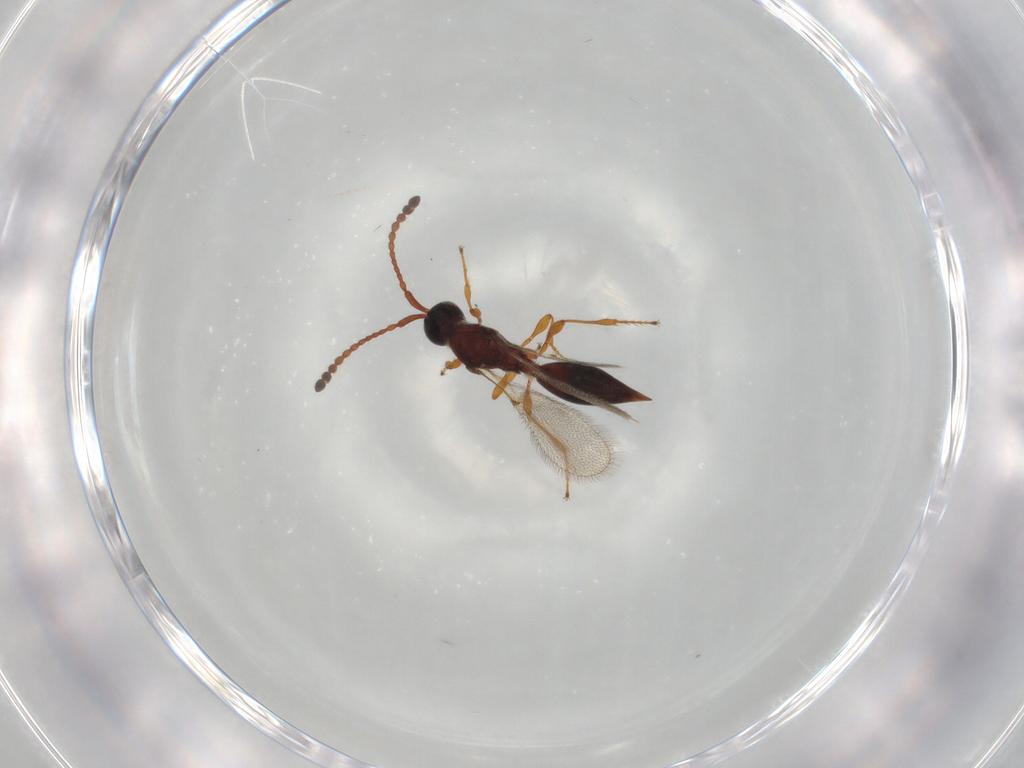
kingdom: Animalia
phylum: Arthropoda
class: Insecta
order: Hymenoptera
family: Diapriidae
